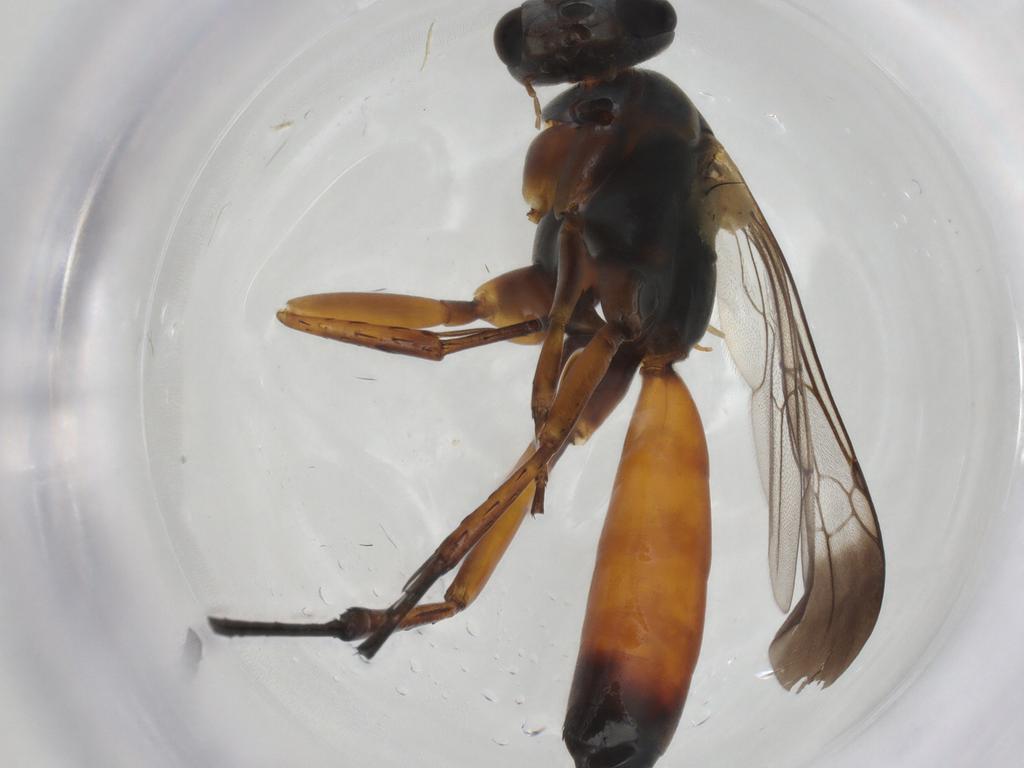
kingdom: Animalia
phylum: Arthropoda
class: Insecta
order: Hymenoptera
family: Pompilidae
